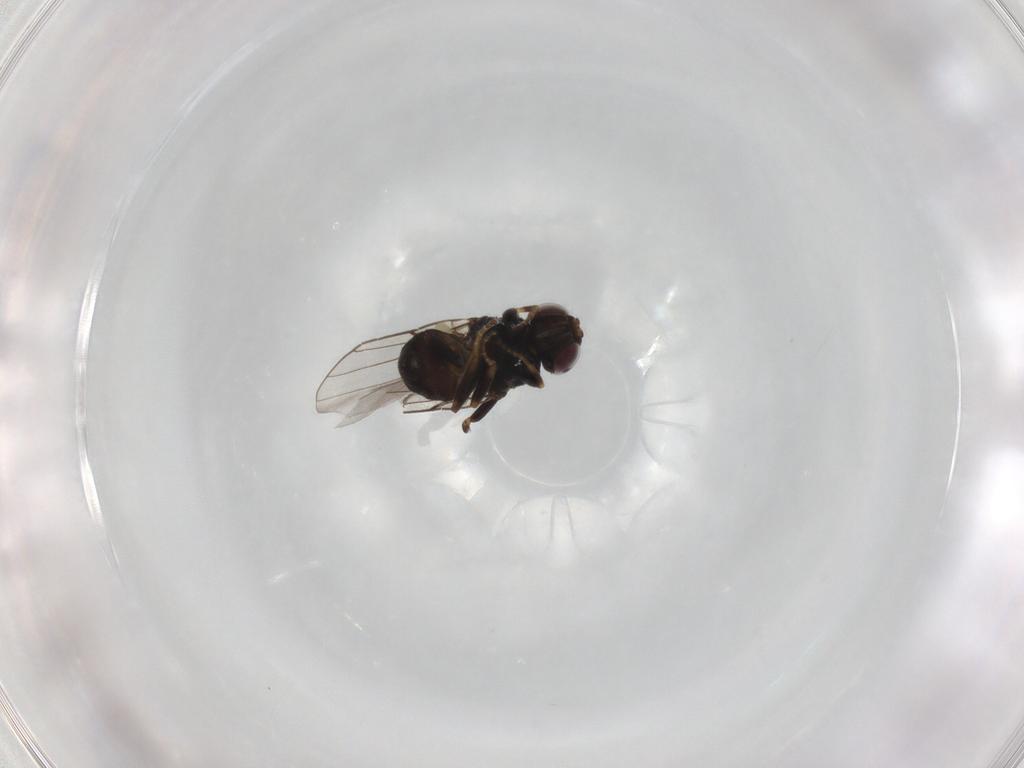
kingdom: Animalia
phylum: Arthropoda
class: Insecta
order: Diptera
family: Chloropidae
